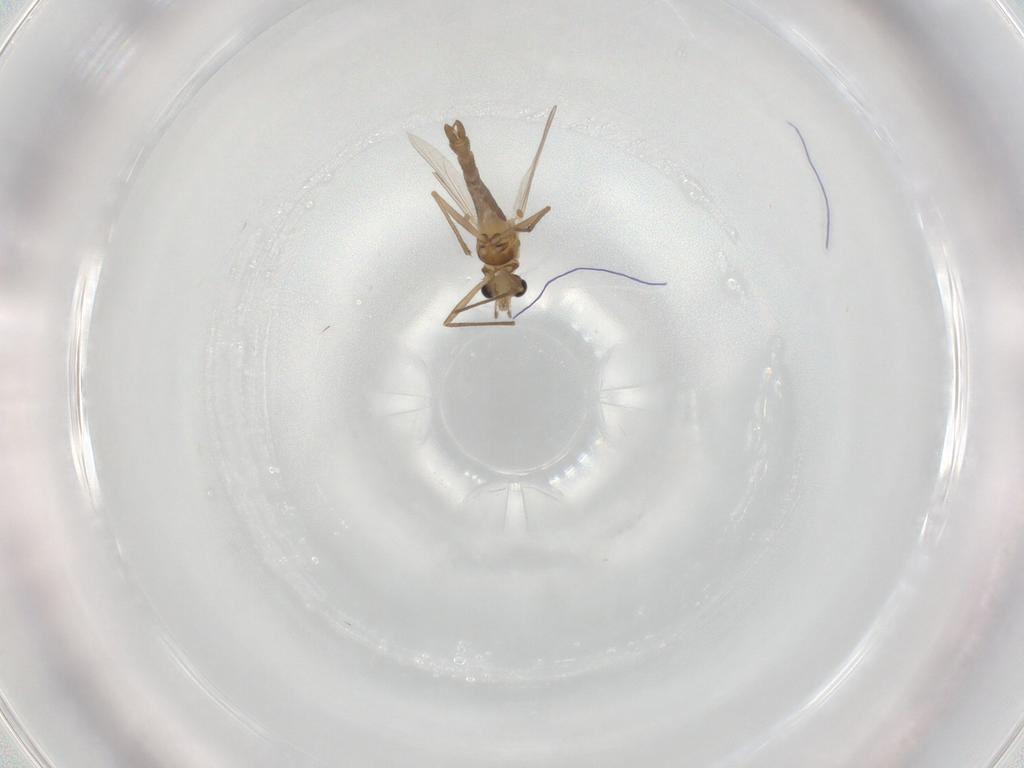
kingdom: Animalia
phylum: Arthropoda
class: Insecta
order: Diptera
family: Chironomidae
